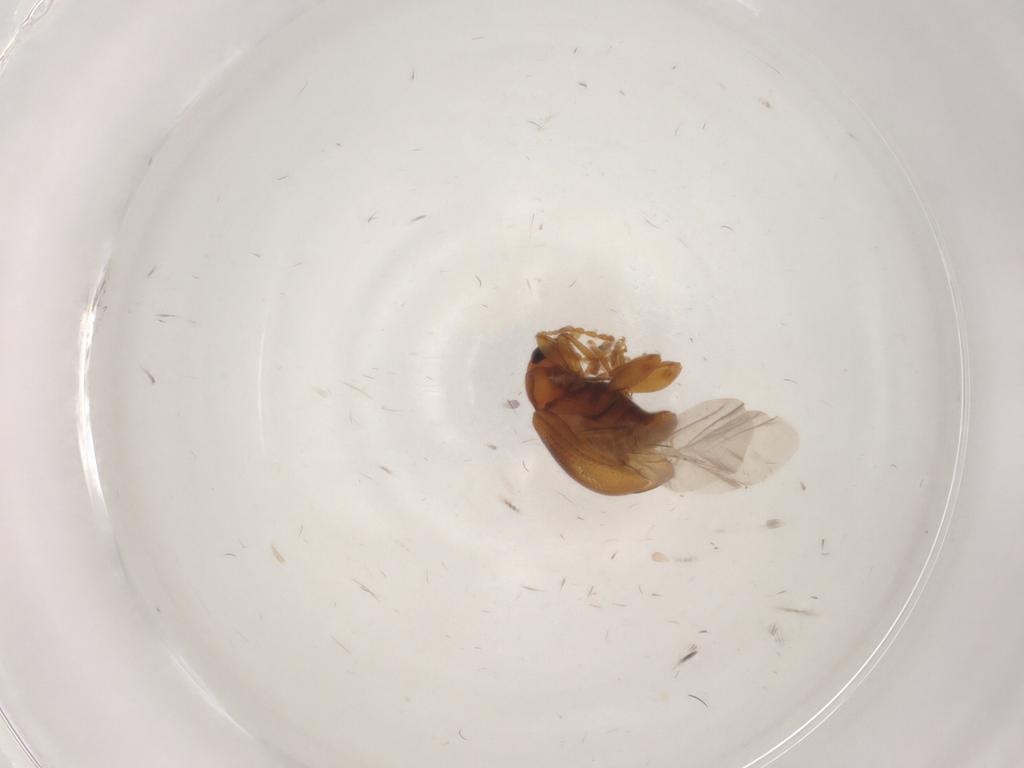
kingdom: Animalia
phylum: Arthropoda
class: Insecta
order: Coleoptera
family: Chrysomelidae
